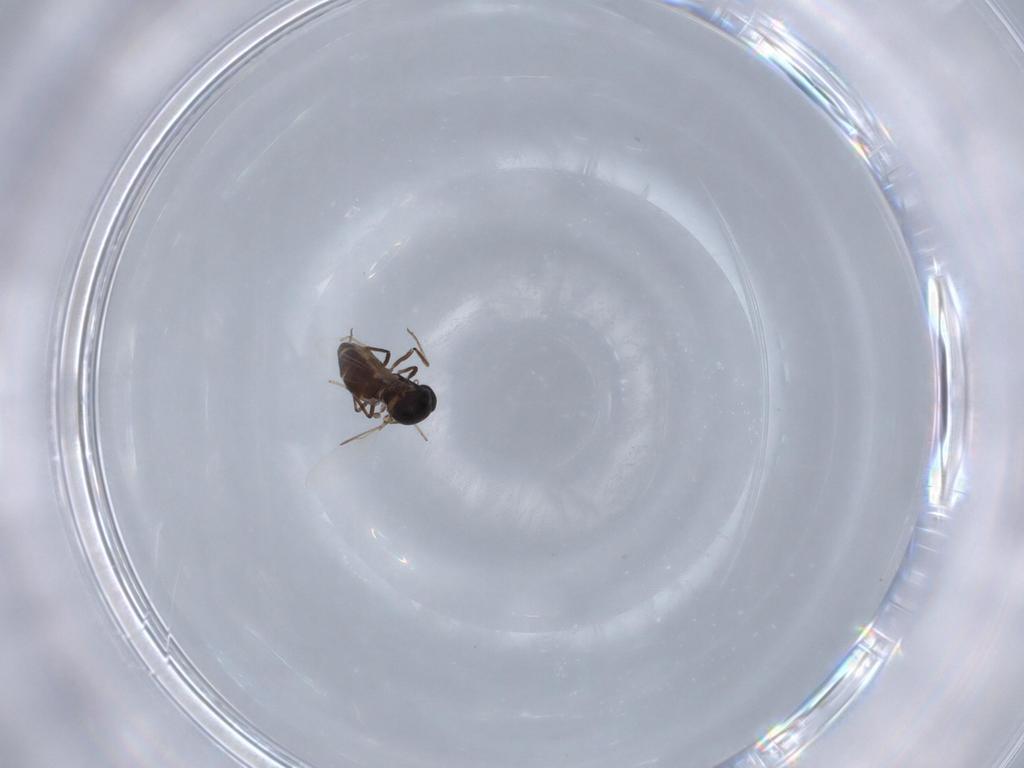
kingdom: Animalia
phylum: Arthropoda
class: Insecta
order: Diptera
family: Ceratopogonidae
